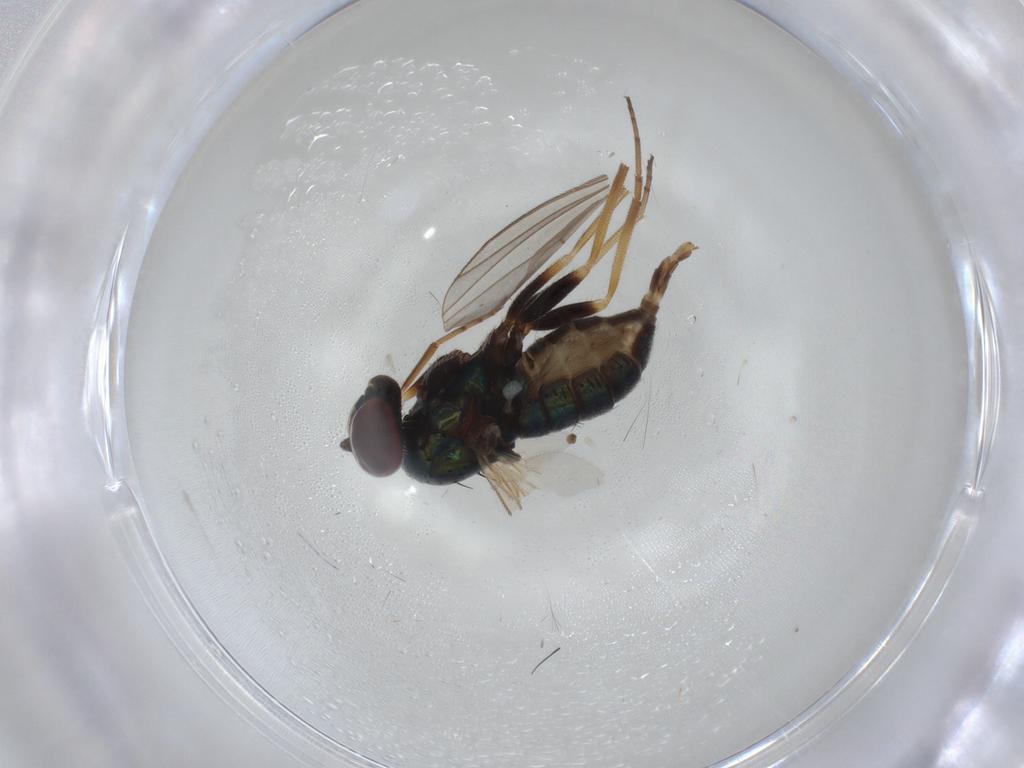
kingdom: Animalia
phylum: Arthropoda
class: Insecta
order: Diptera
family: Dolichopodidae
